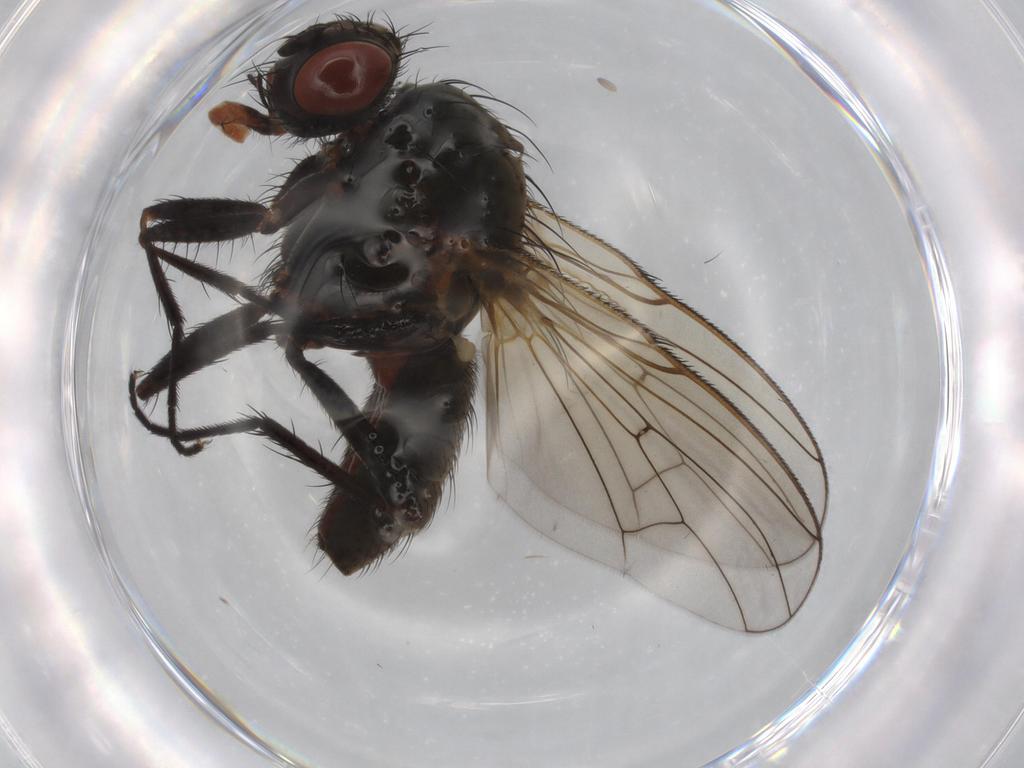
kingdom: Animalia
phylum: Arthropoda
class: Insecta
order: Diptera
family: Anthomyiidae
